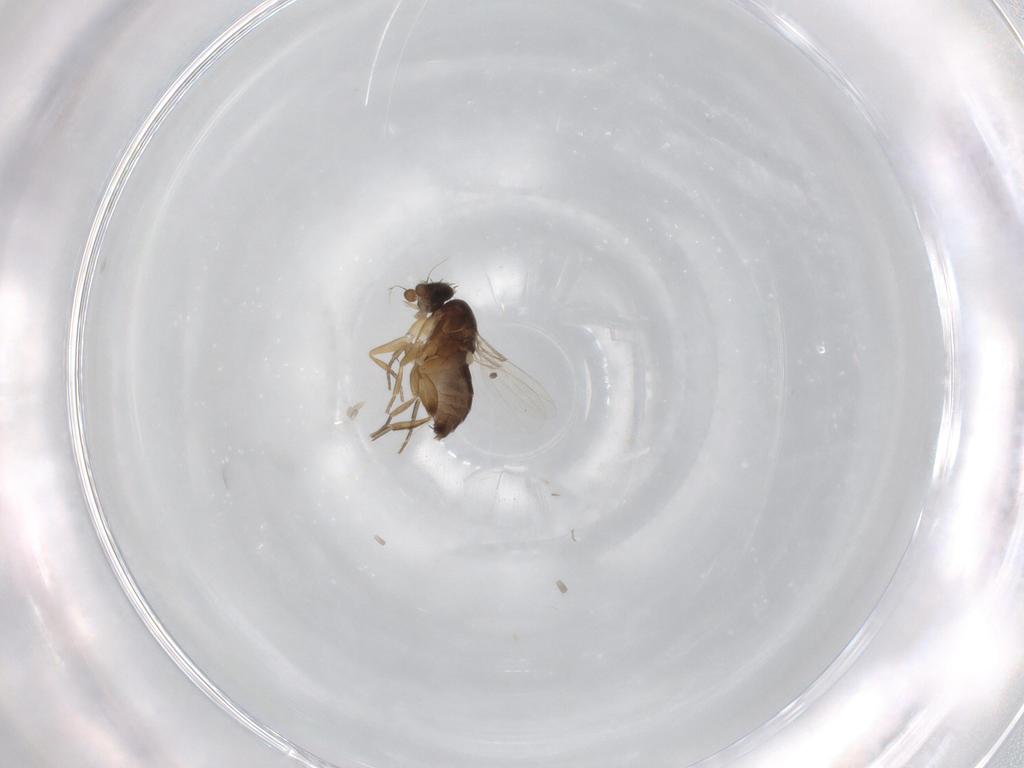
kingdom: Animalia
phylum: Arthropoda
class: Insecta
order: Diptera
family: Phoridae
